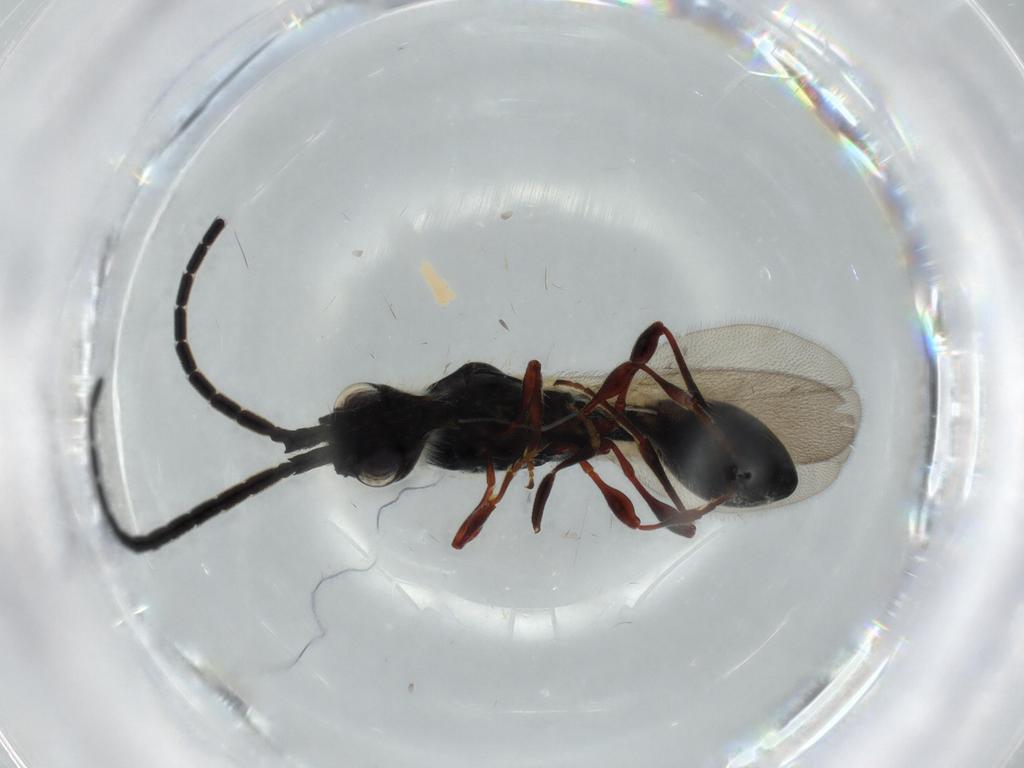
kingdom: Animalia
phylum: Arthropoda
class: Insecta
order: Hymenoptera
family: Diapriidae
